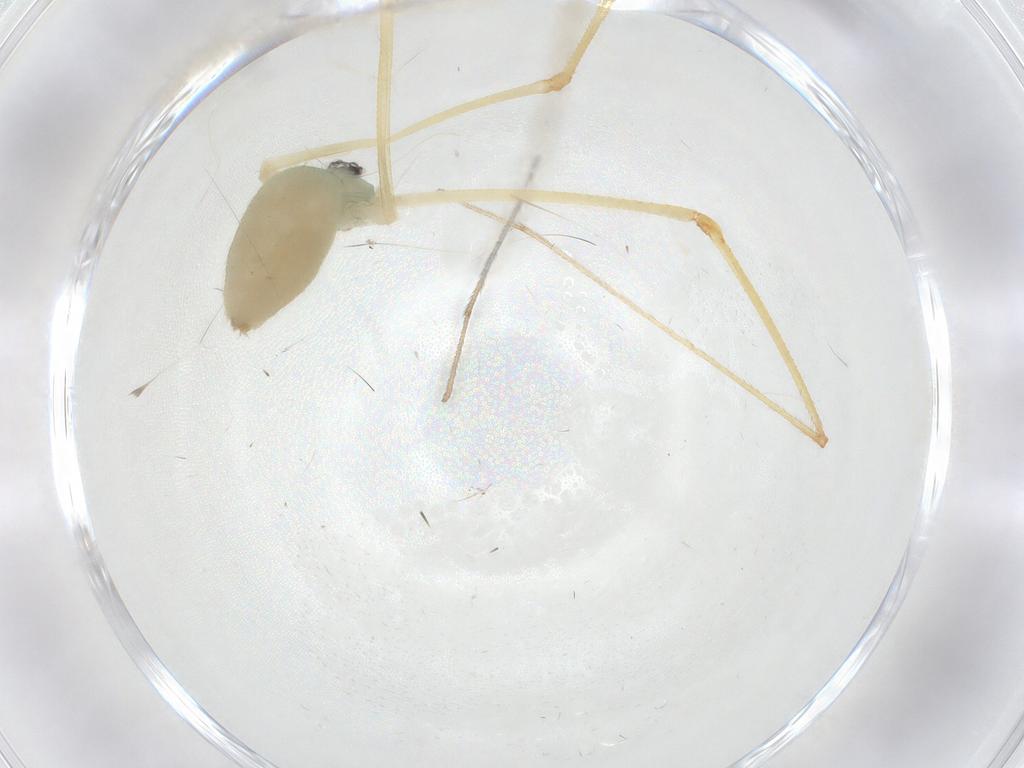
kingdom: Animalia
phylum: Arthropoda
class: Arachnida
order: Araneae
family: Pholcidae
